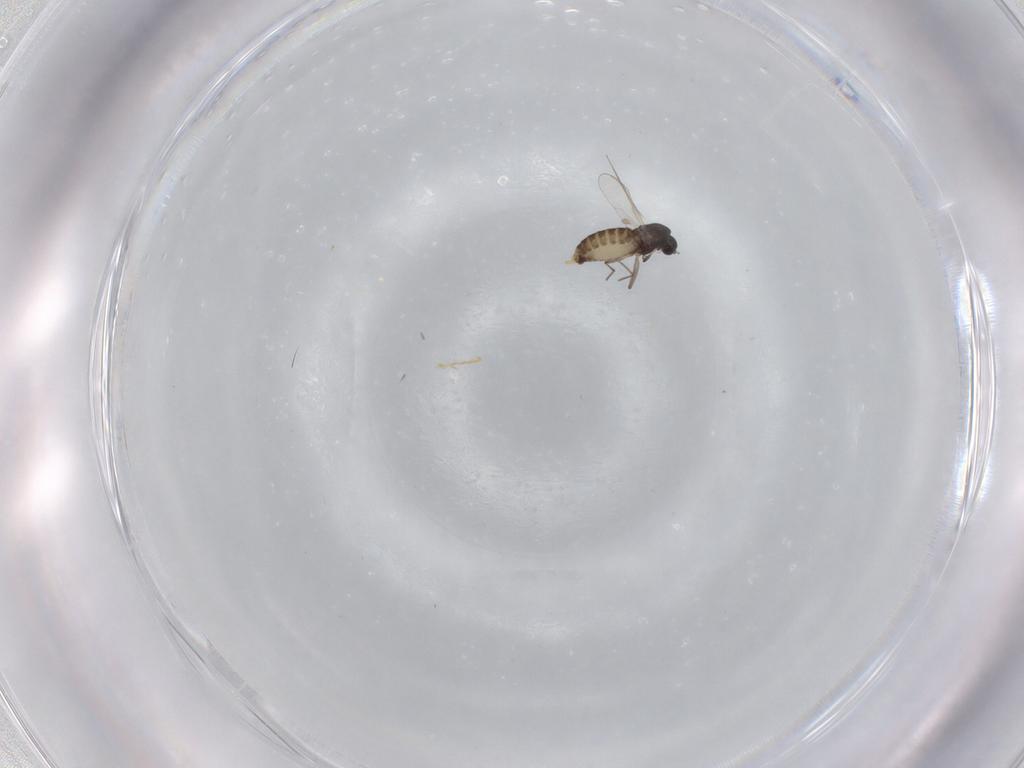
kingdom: Animalia
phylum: Arthropoda
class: Insecta
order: Diptera
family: Chironomidae
